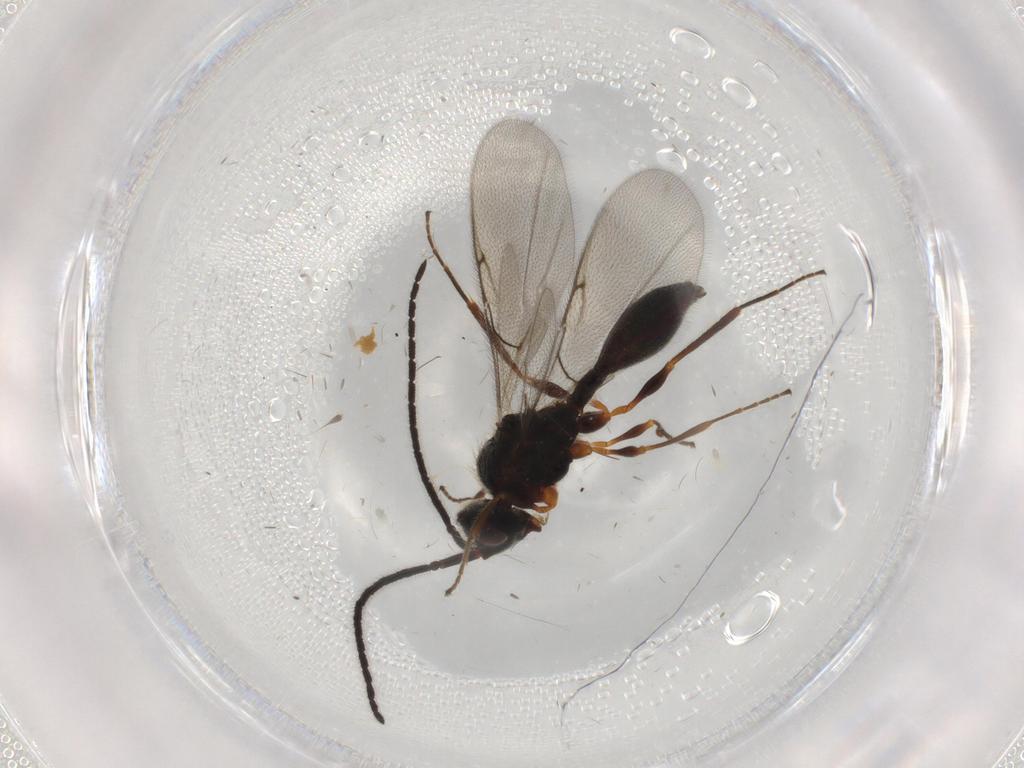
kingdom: Animalia
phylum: Arthropoda
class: Insecta
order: Hymenoptera
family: Diapriidae
